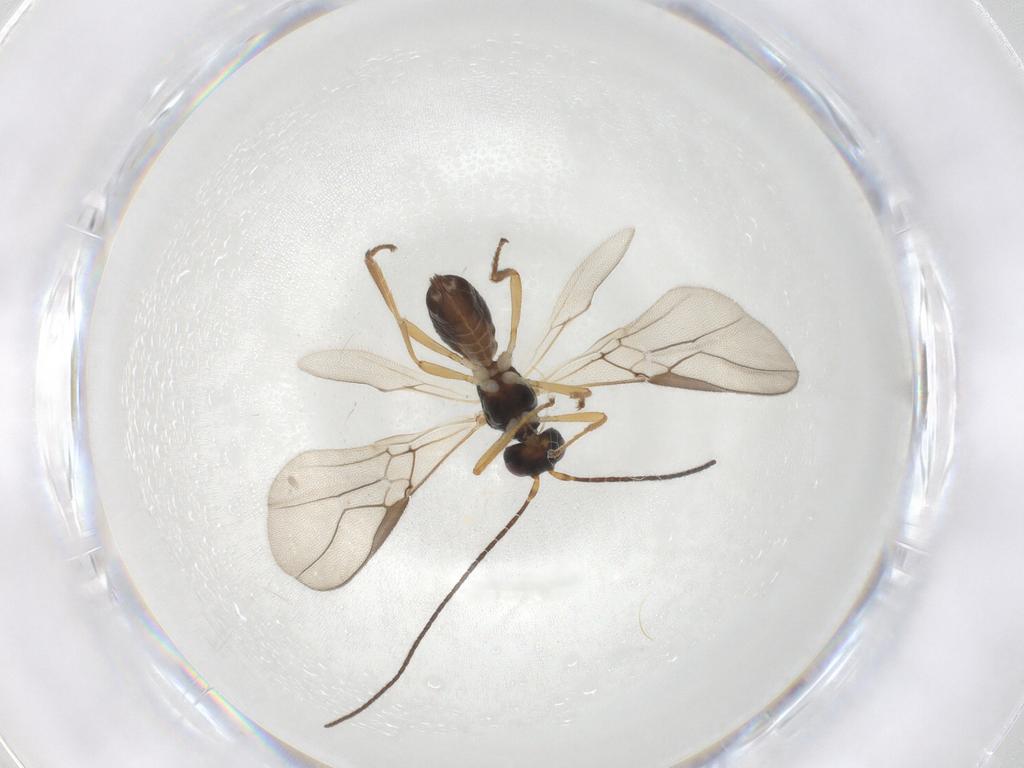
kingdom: Animalia
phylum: Arthropoda
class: Insecta
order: Hymenoptera
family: Braconidae
